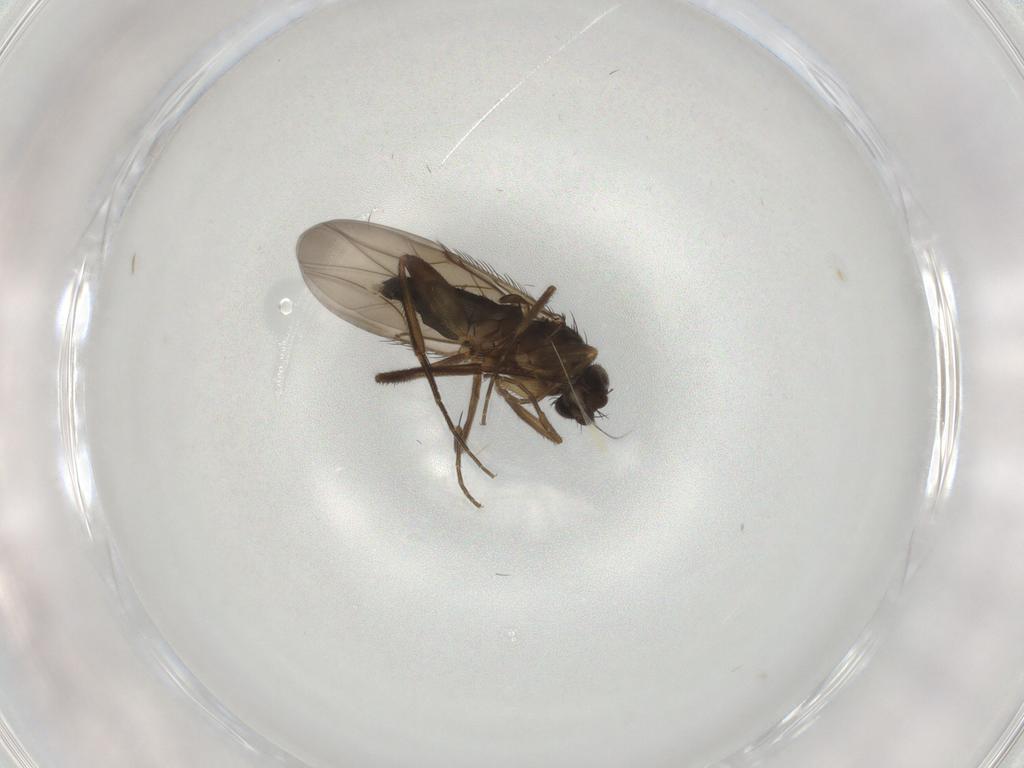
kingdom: Animalia
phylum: Arthropoda
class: Insecta
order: Diptera
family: Phoridae
